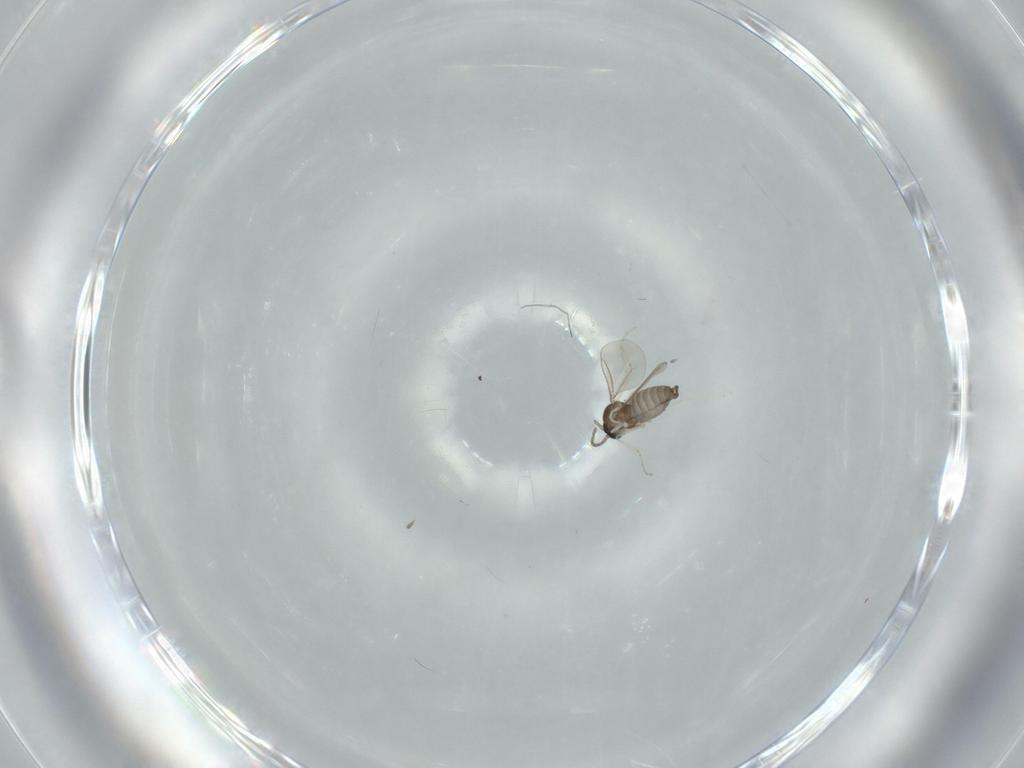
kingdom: Animalia
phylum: Arthropoda
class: Insecta
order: Diptera
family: Cecidomyiidae
